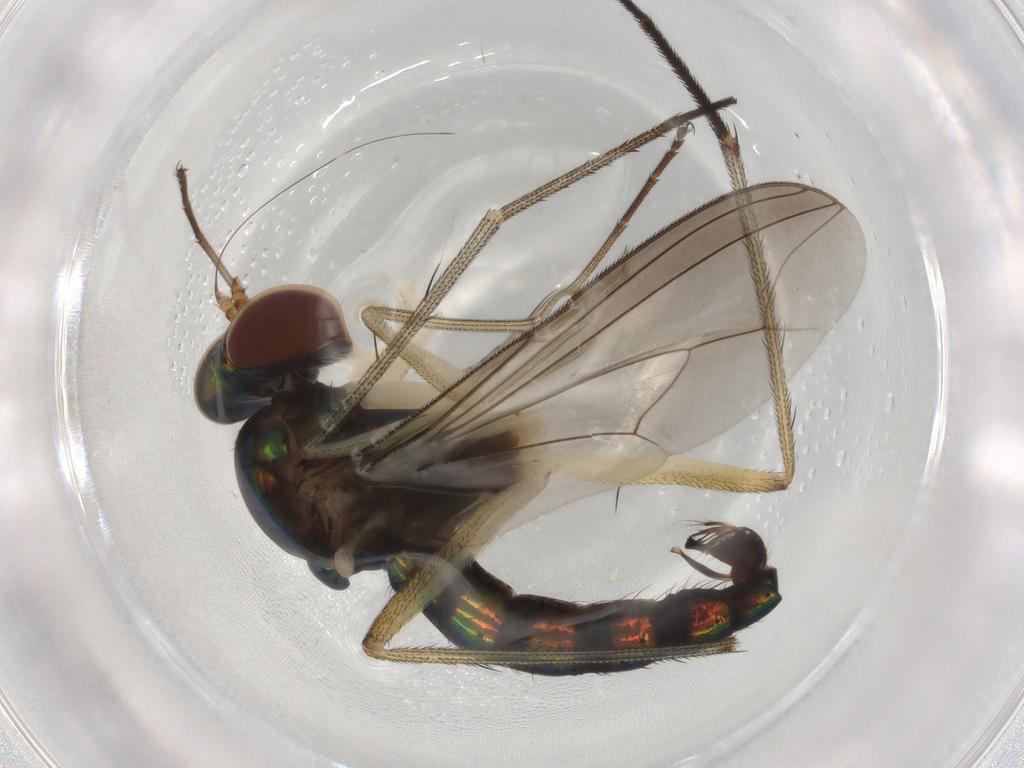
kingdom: Animalia
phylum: Arthropoda
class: Insecta
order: Diptera
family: Dolichopodidae
